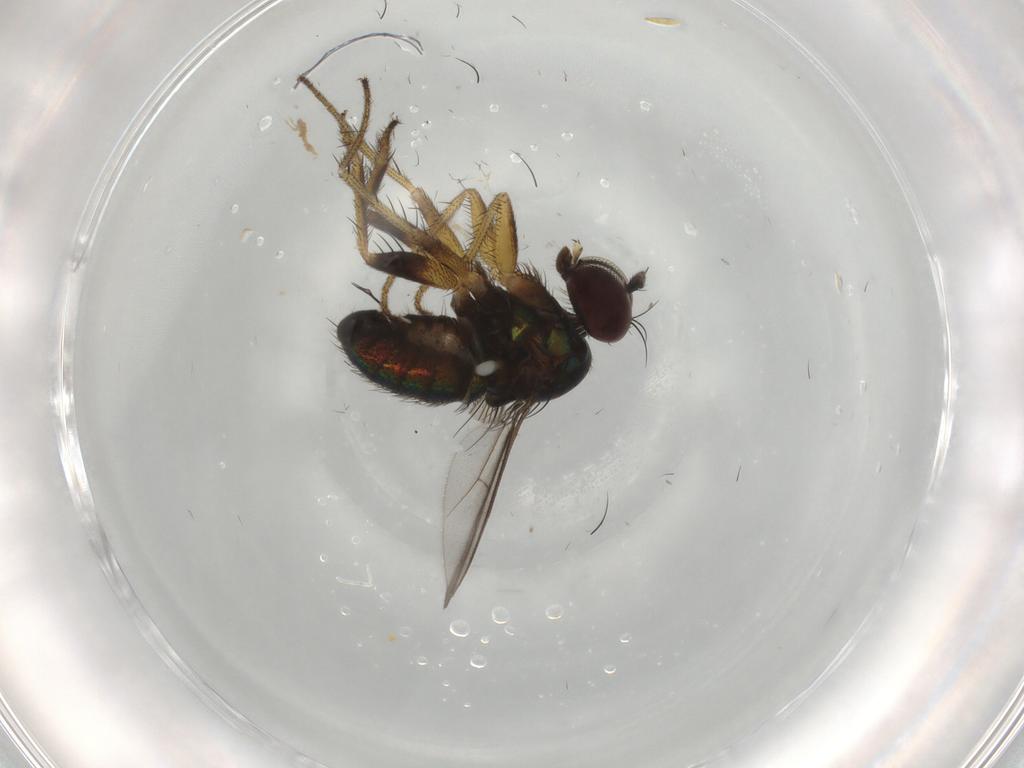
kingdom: Animalia
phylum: Arthropoda
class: Insecta
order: Diptera
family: Dolichopodidae
